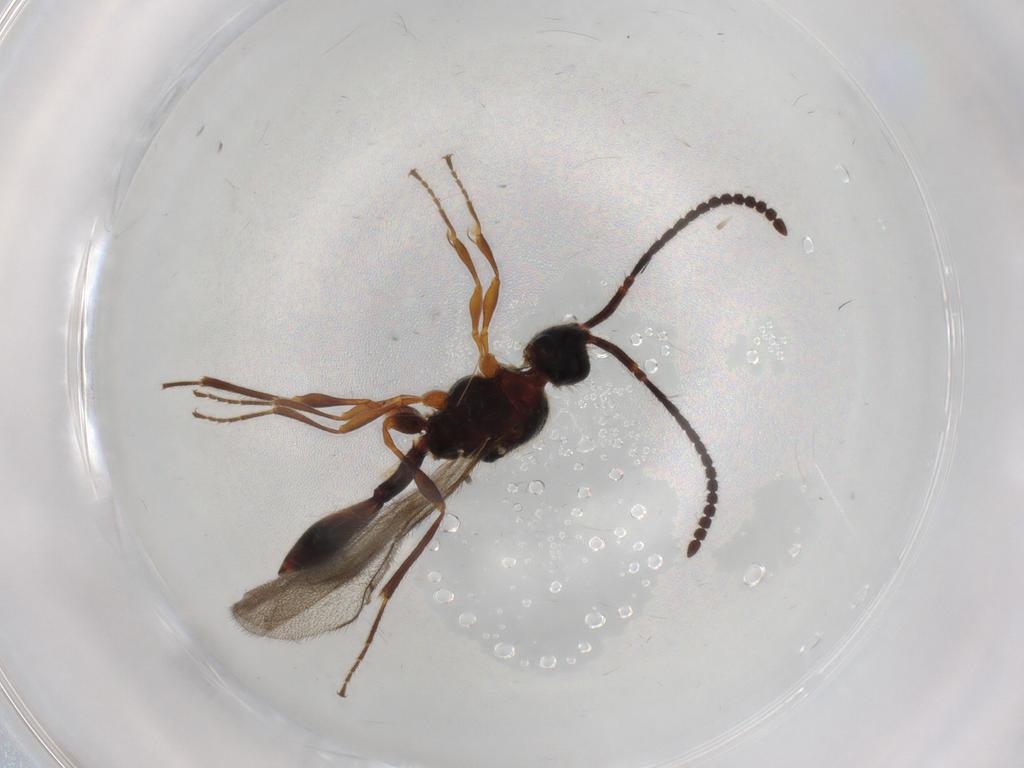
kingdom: Animalia
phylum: Arthropoda
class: Insecta
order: Hymenoptera
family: Diapriidae
